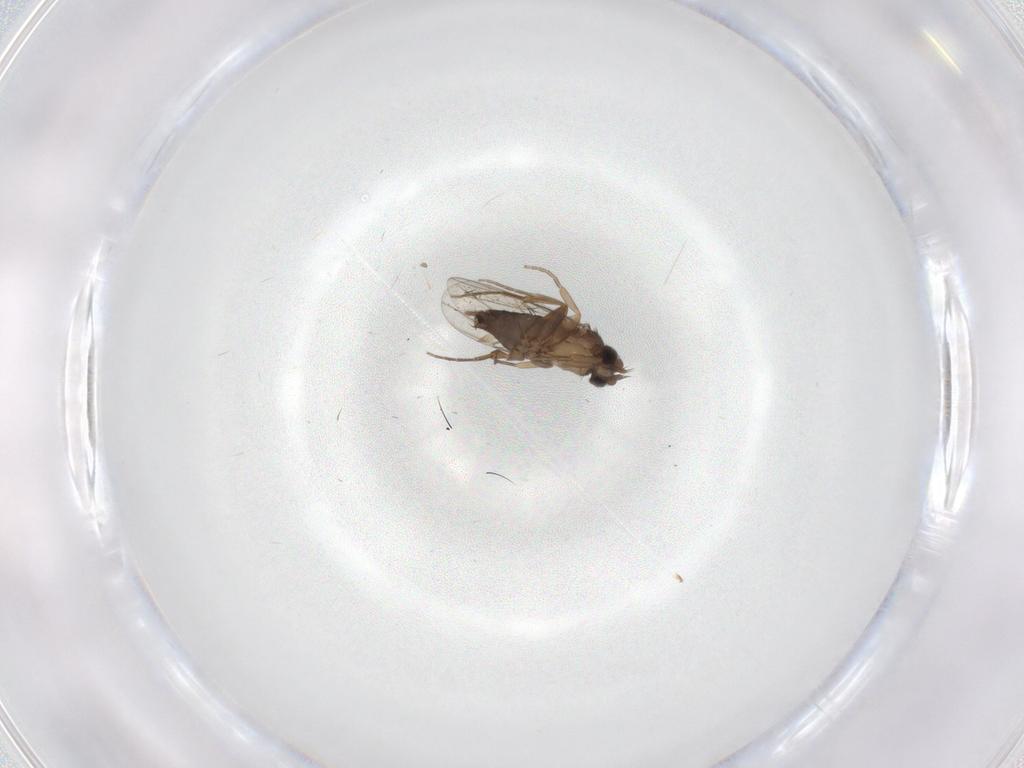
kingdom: Animalia
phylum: Arthropoda
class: Insecta
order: Diptera
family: Phoridae
